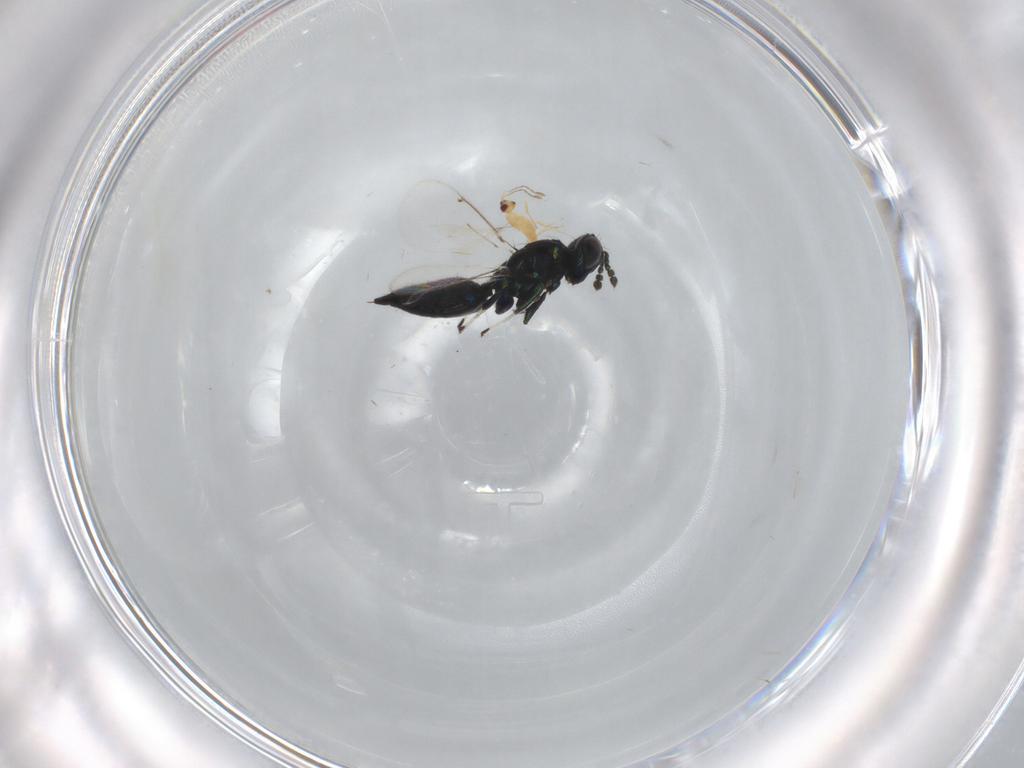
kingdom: Animalia
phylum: Arthropoda
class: Insecta
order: Hymenoptera
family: Eulophidae
